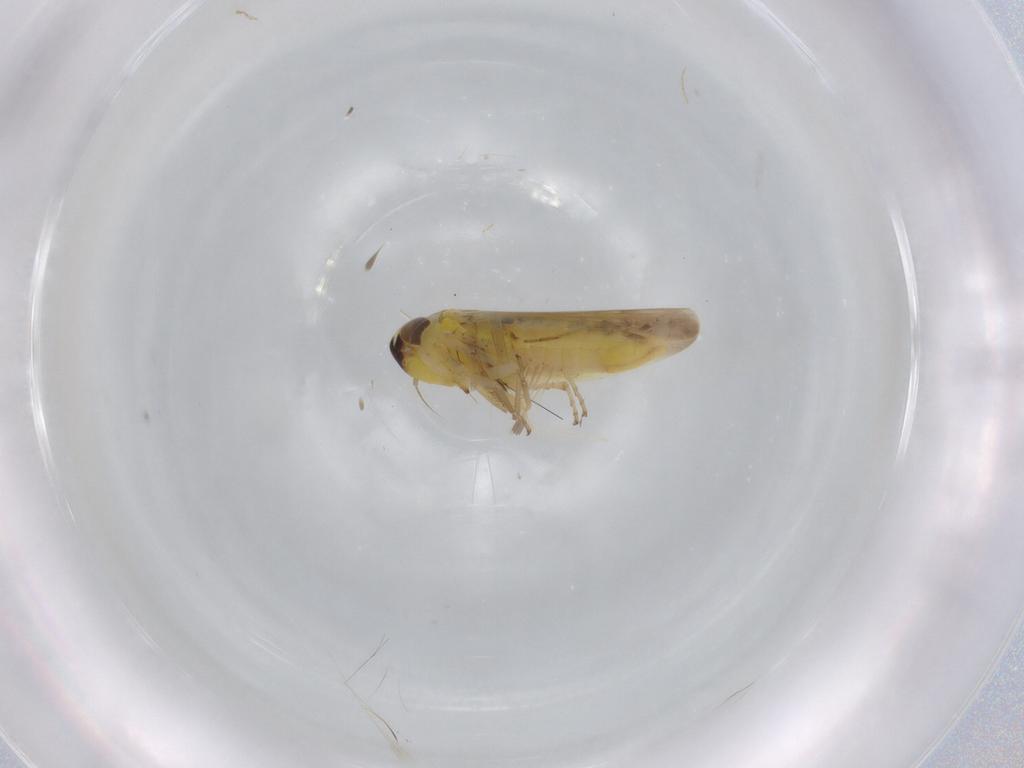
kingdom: Animalia
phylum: Arthropoda
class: Insecta
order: Hemiptera
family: Cicadellidae
